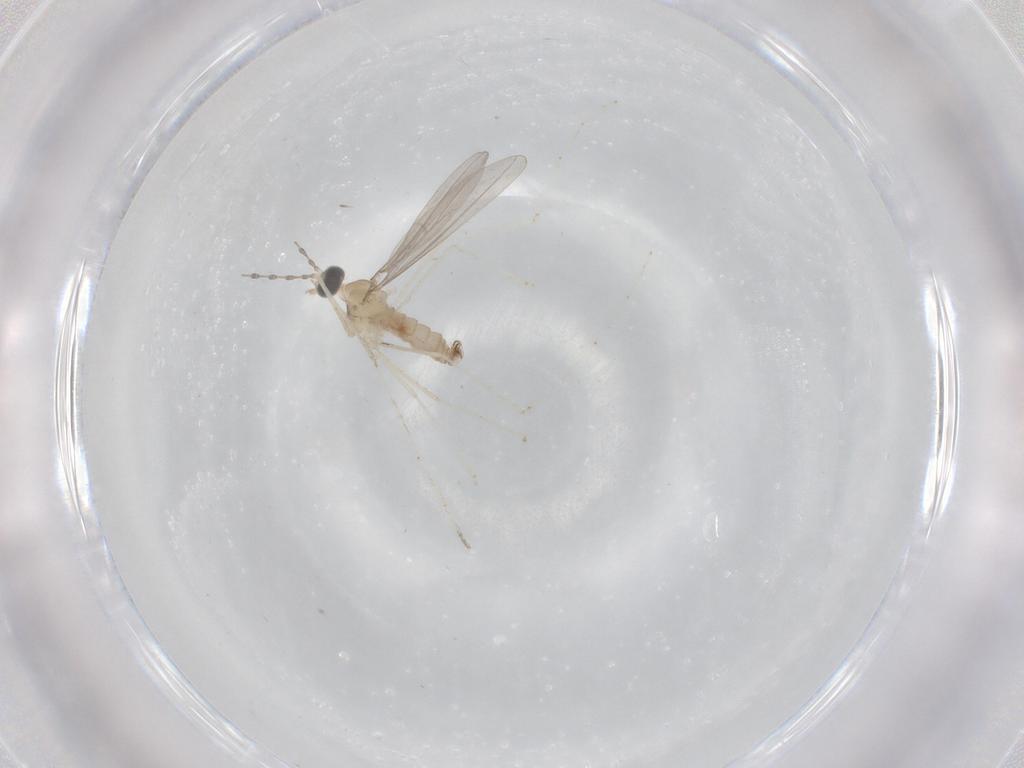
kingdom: Animalia
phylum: Arthropoda
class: Insecta
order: Diptera
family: Cecidomyiidae
